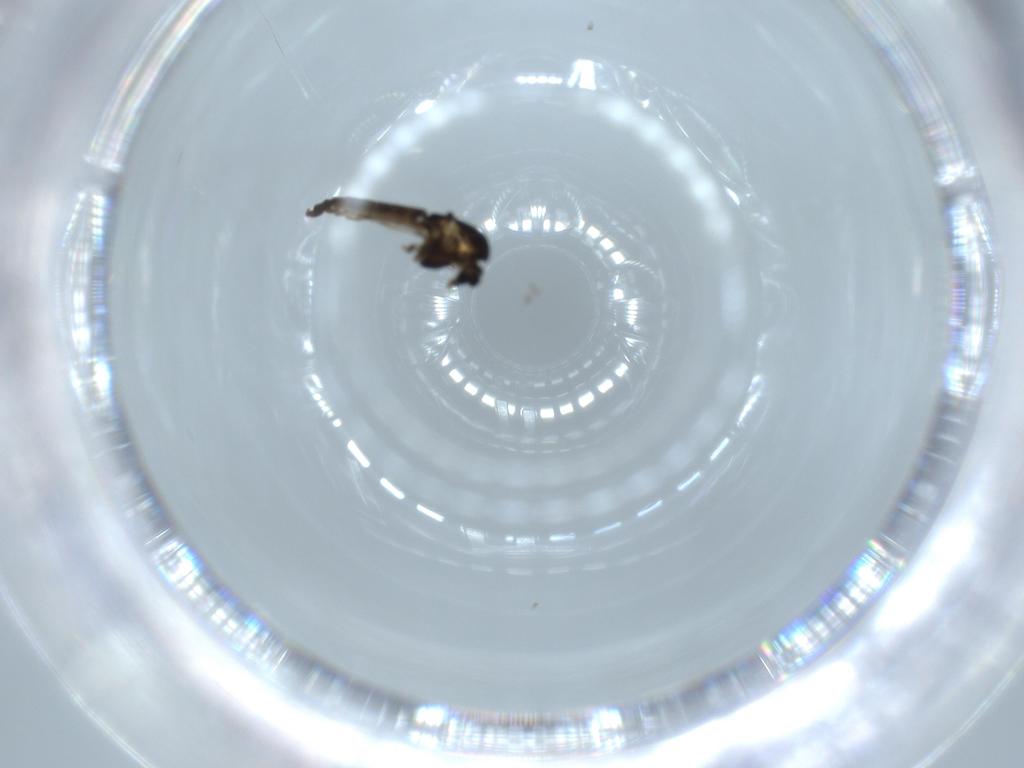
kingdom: Animalia
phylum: Arthropoda
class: Insecta
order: Diptera
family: Chironomidae
